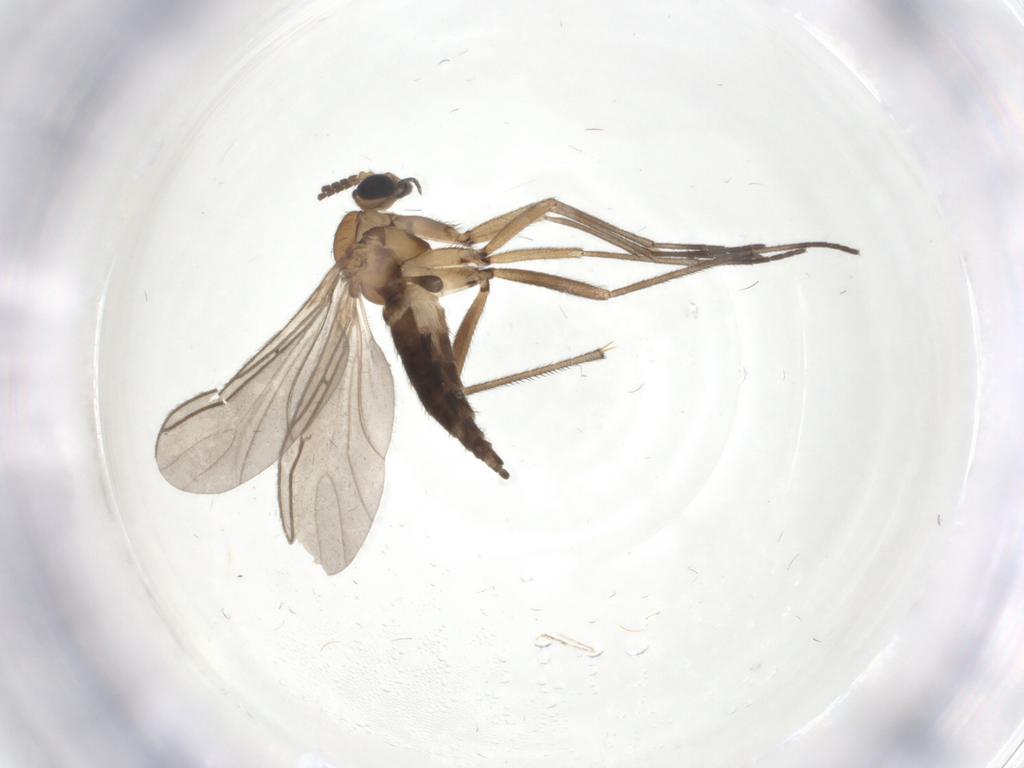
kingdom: Animalia
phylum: Arthropoda
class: Insecta
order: Diptera
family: Sciaridae
